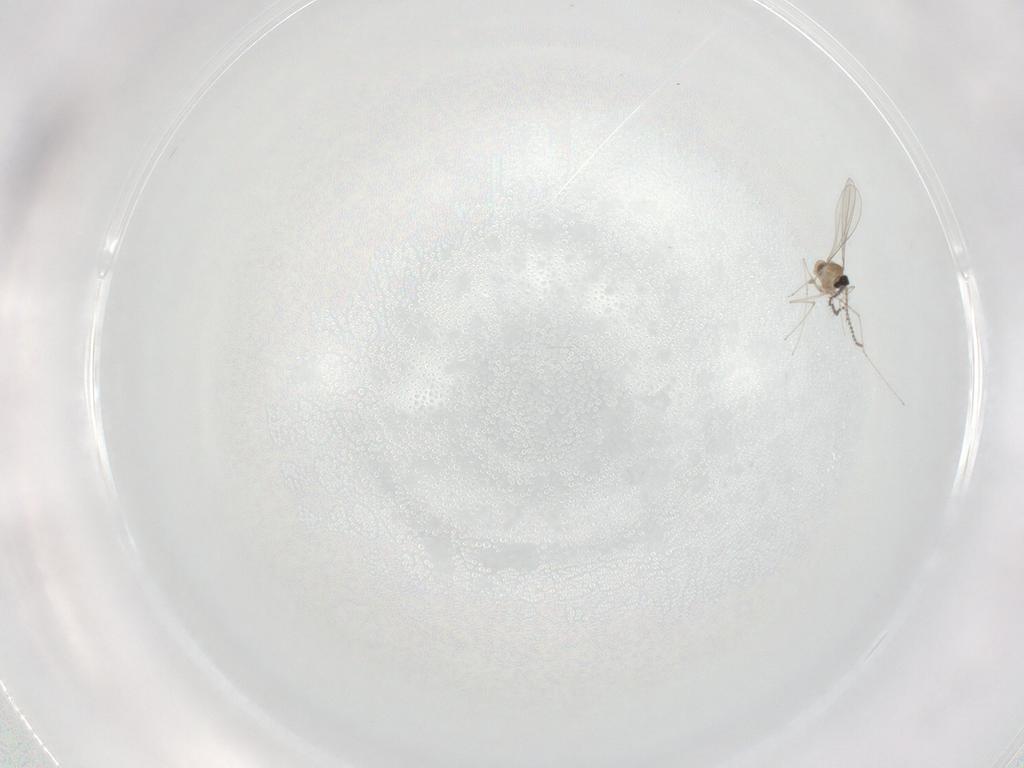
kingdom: Animalia
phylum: Arthropoda
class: Insecta
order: Diptera
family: Cecidomyiidae
